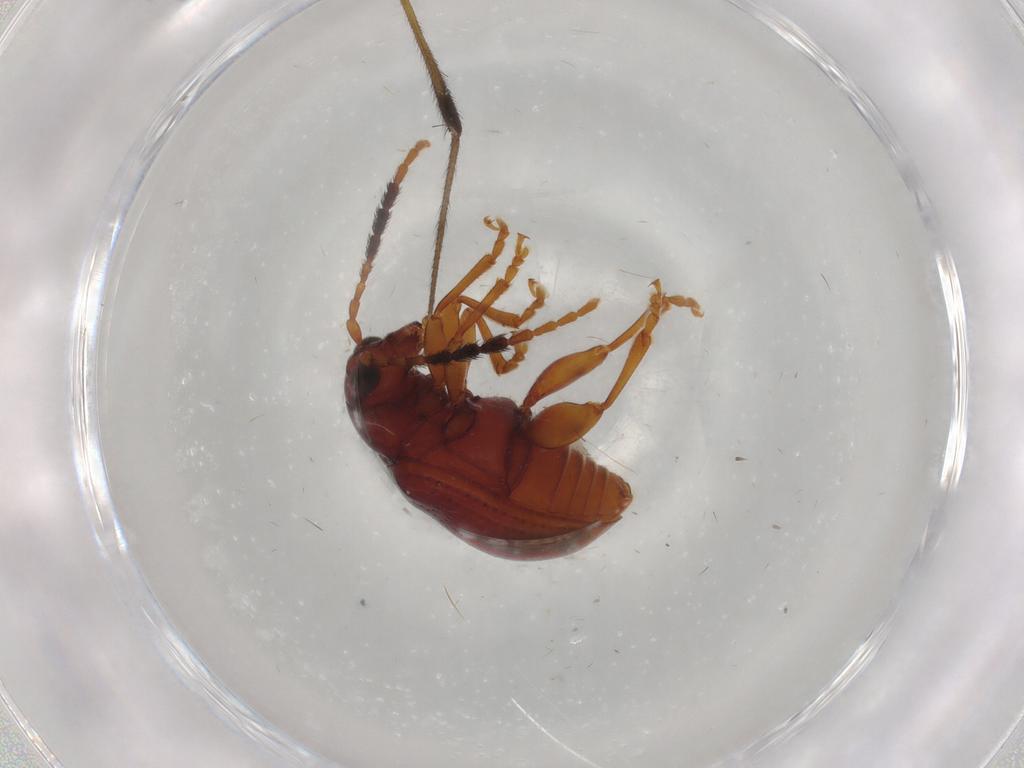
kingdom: Animalia
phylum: Arthropoda
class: Insecta
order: Coleoptera
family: Chrysomelidae
